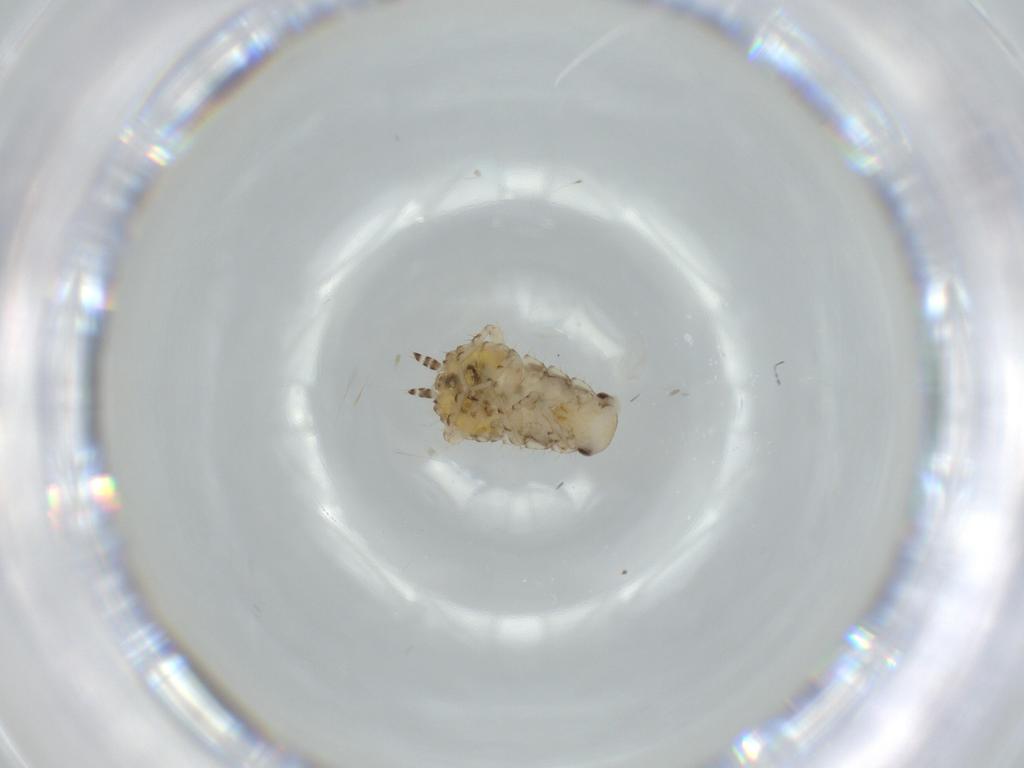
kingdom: Animalia
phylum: Arthropoda
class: Insecta
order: Blattodea
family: Ectobiidae
